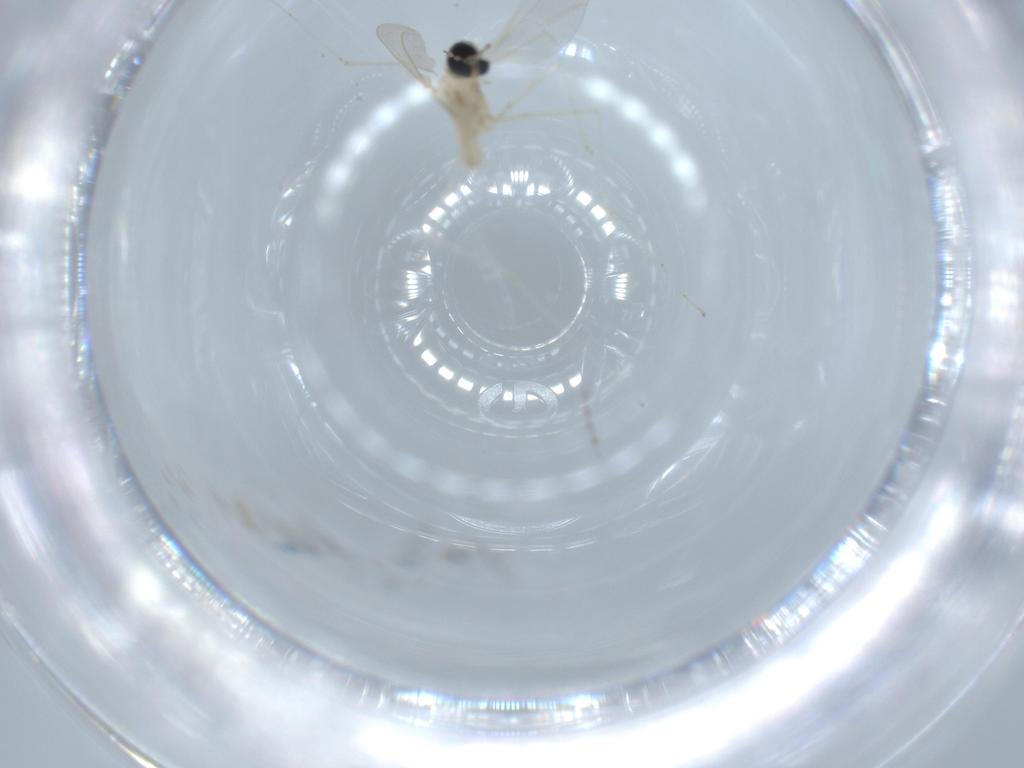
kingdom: Animalia
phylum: Arthropoda
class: Insecta
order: Diptera
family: Cecidomyiidae
